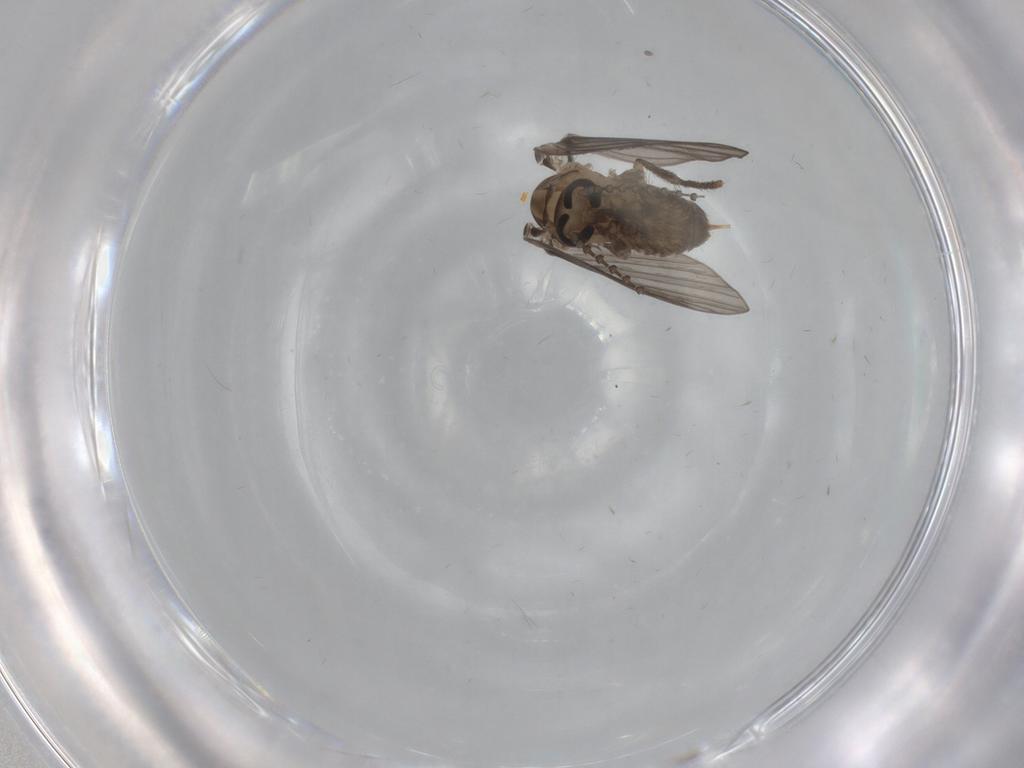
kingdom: Animalia
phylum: Arthropoda
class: Insecta
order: Diptera
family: Psychodidae
